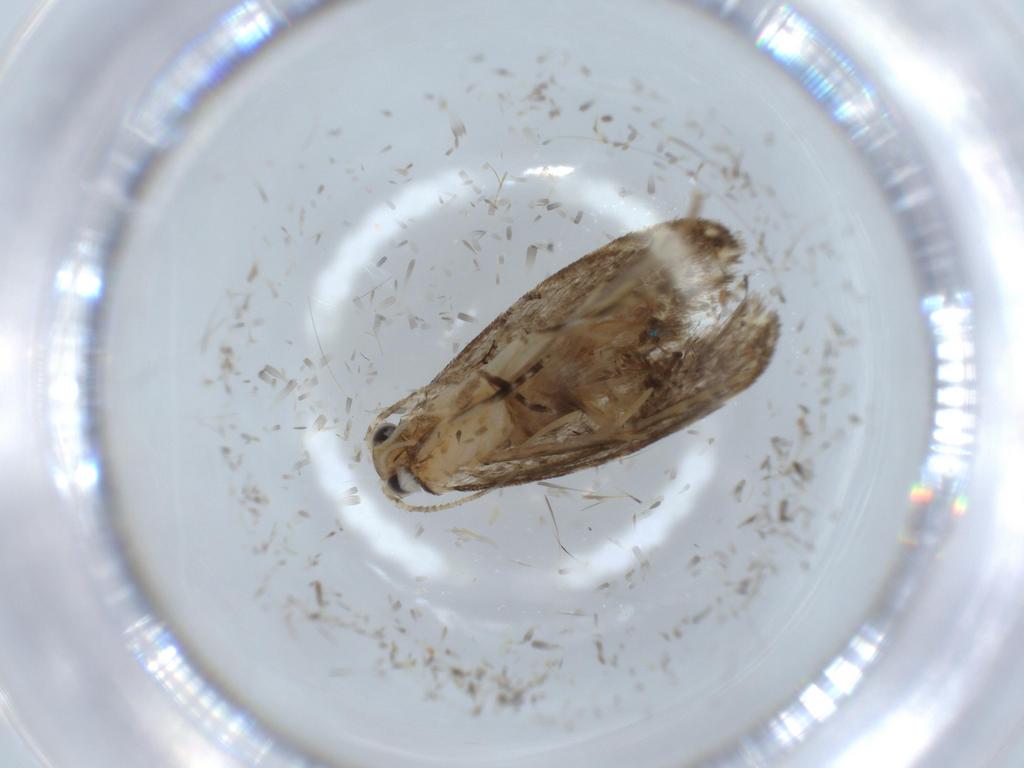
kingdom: Animalia
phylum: Arthropoda
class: Insecta
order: Lepidoptera
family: Tineidae
